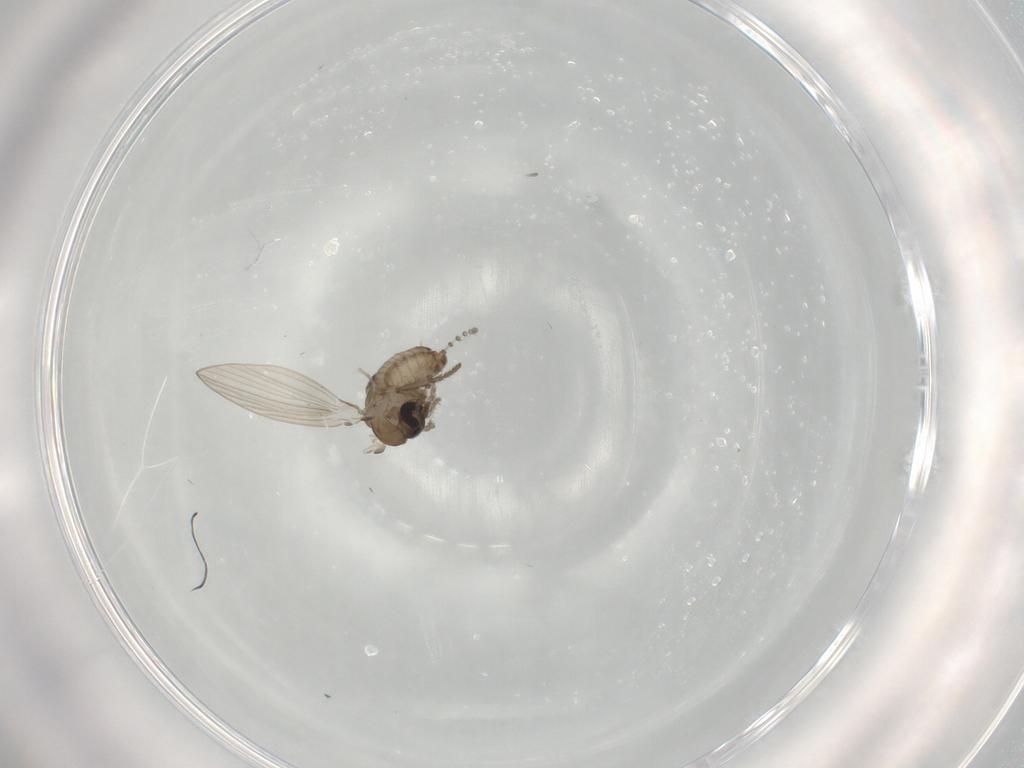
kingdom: Animalia
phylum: Arthropoda
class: Insecta
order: Diptera
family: Psychodidae
